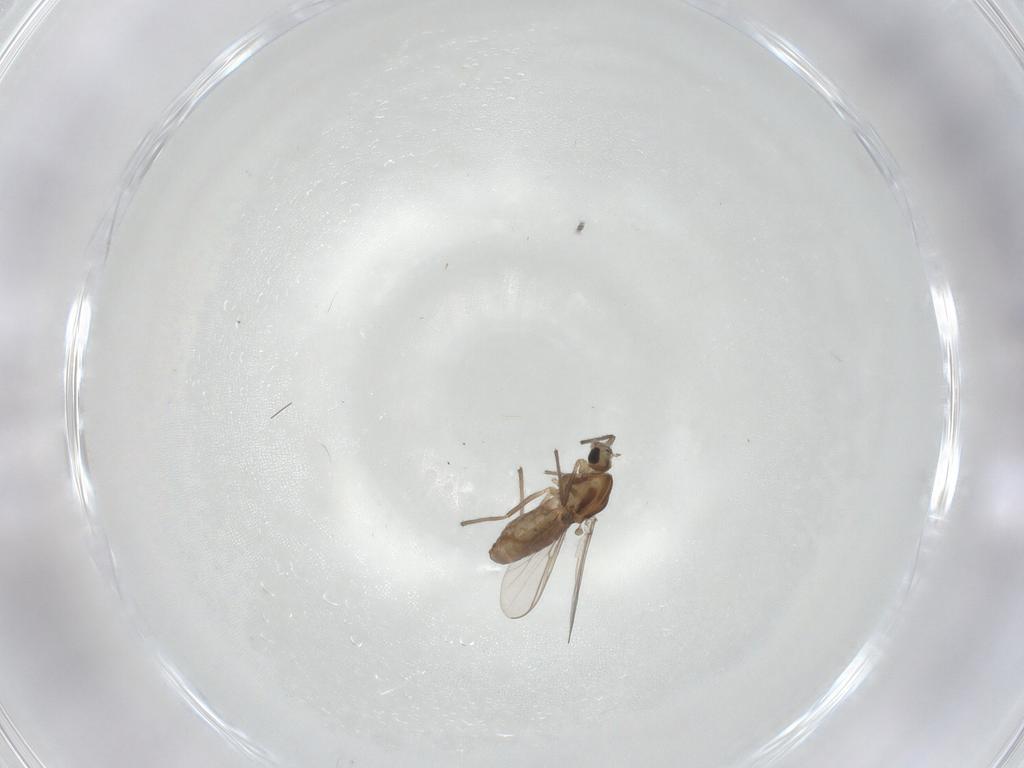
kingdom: Animalia
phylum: Arthropoda
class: Insecta
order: Diptera
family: Chironomidae
